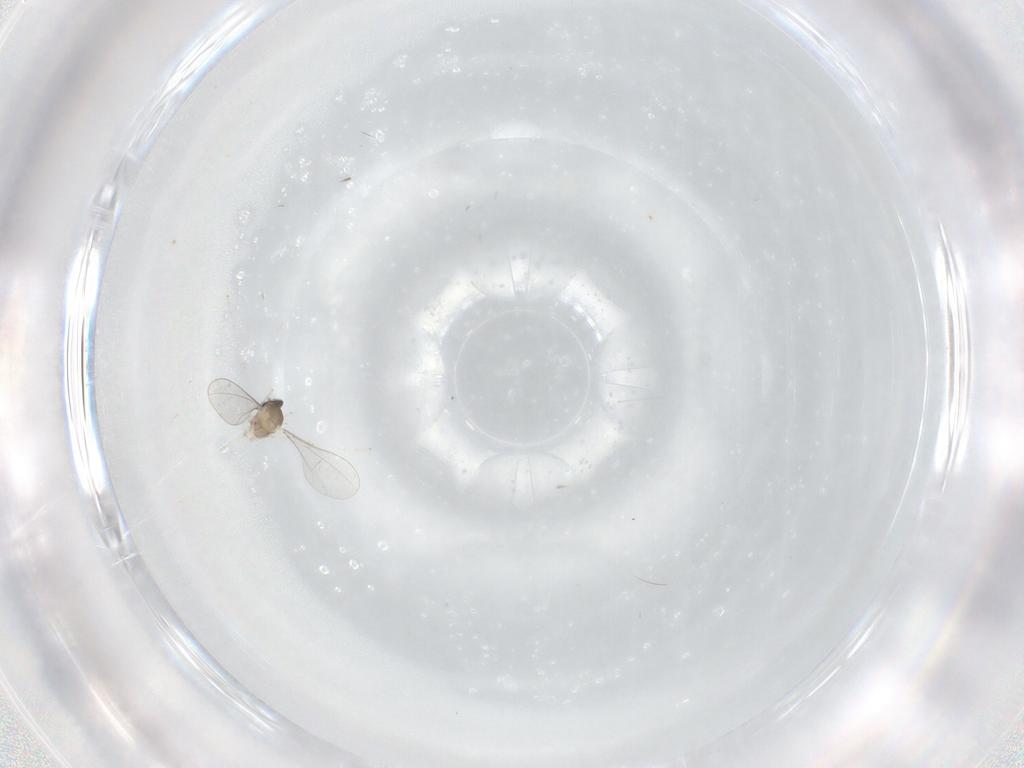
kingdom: Animalia
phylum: Arthropoda
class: Insecta
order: Diptera
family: Cecidomyiidae
